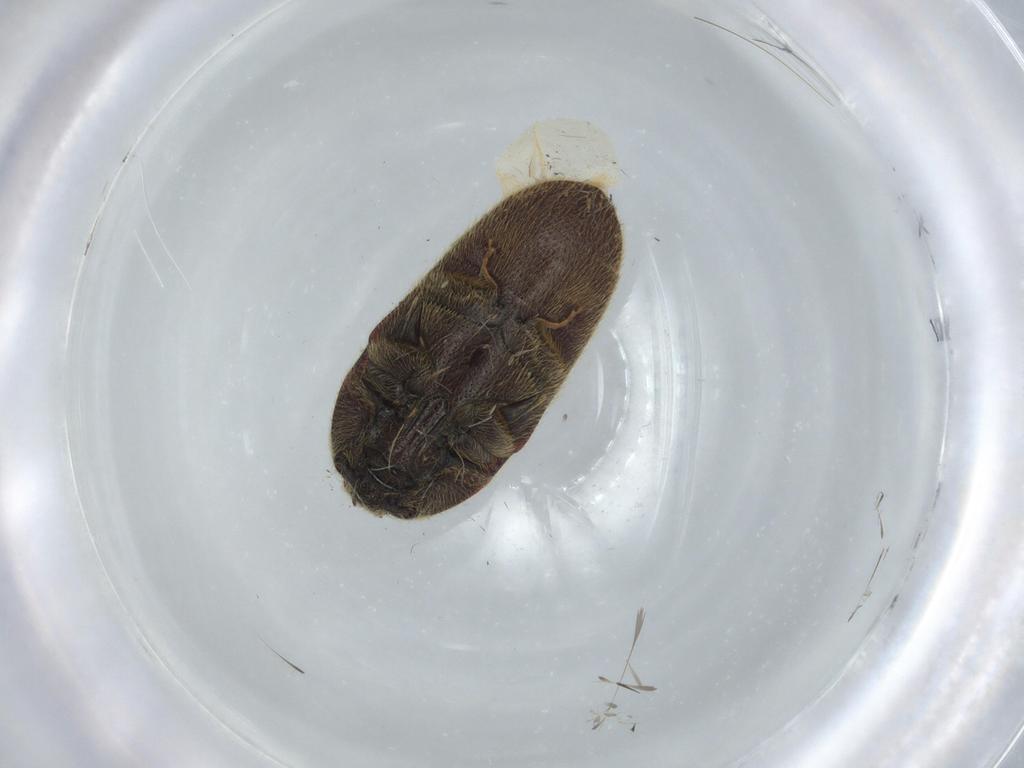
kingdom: Animalia
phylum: Arthropoda
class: Insecta
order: Coleoptera
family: Throscidae
